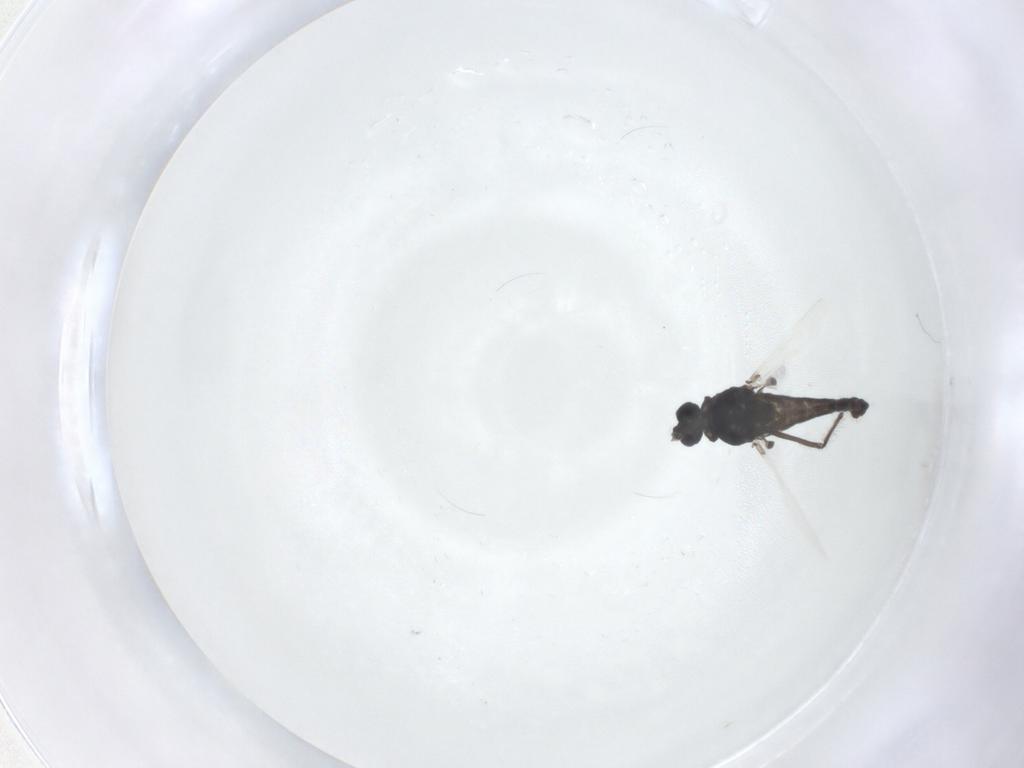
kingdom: Animalia
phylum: Arthropoda
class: Insecta
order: Diptera
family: Chironomidae
